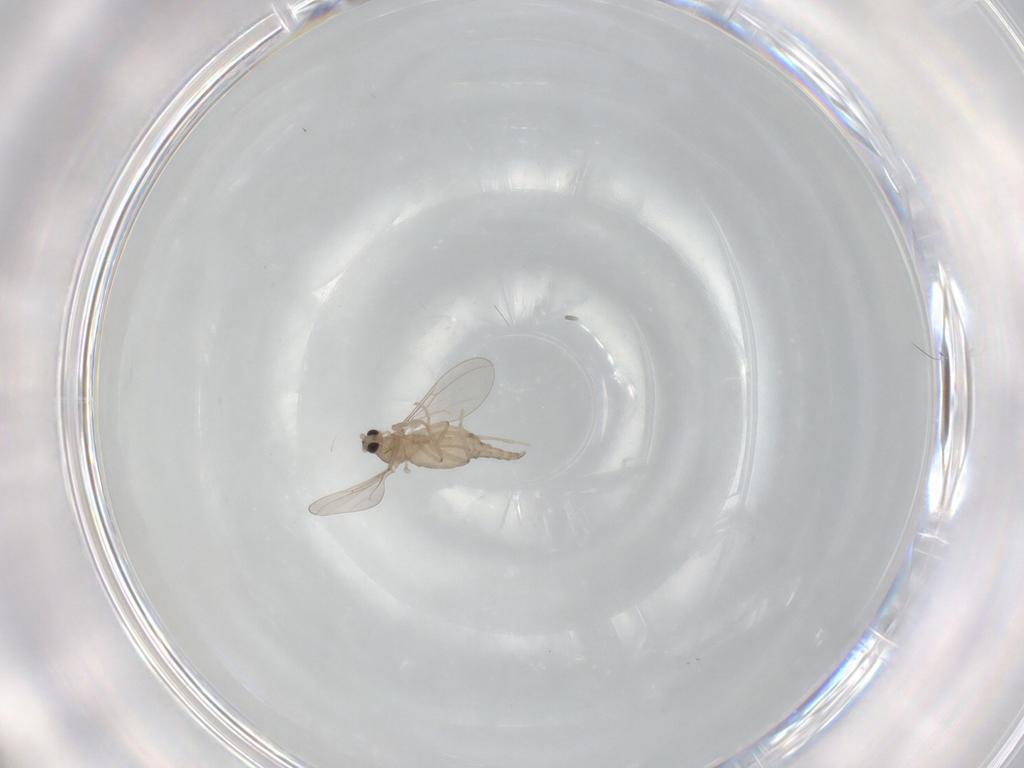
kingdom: Animalia
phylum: Arthropoda
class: Insecta
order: Diptera
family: Cecidomyiidae
